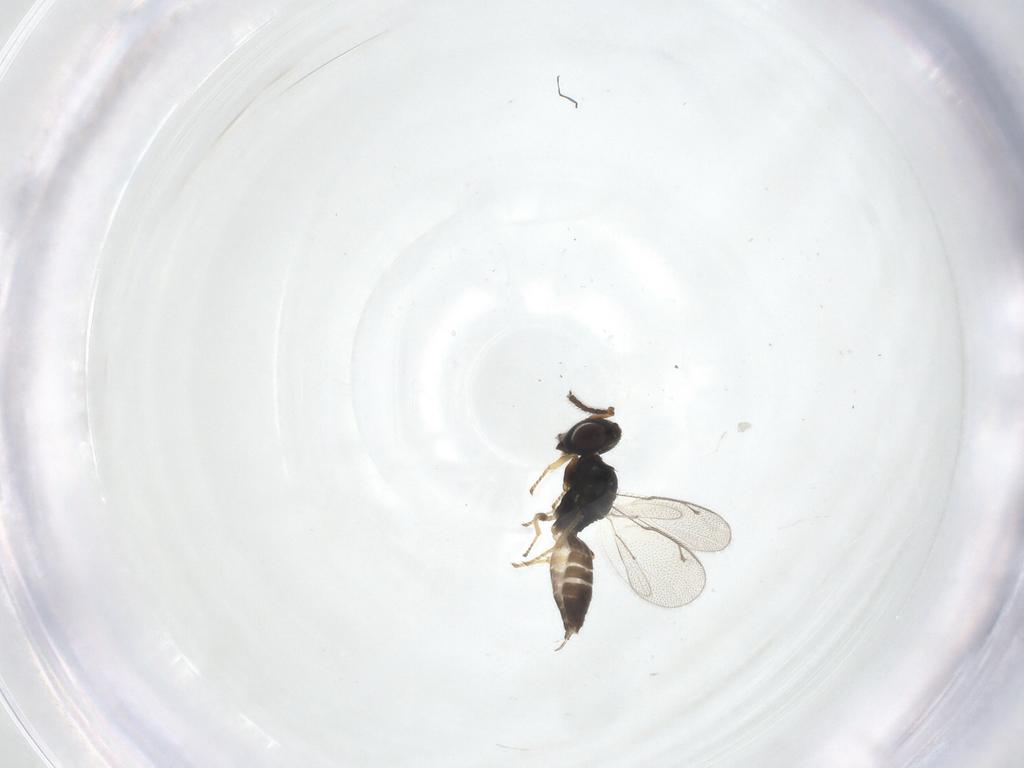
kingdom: Animalia
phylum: Arthropoda
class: Insecta
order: Hymenoptera
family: Pteromalidae
